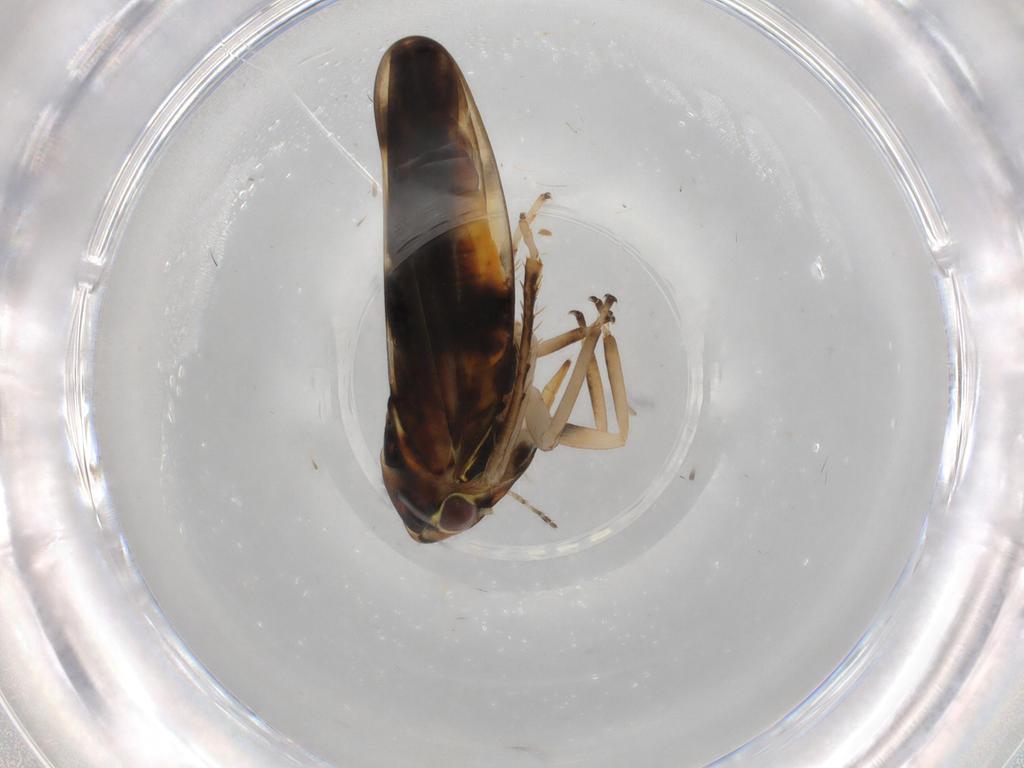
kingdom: Animalia
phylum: Arthropoda
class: Insecta
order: Hemiptera
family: Cicadellidae
